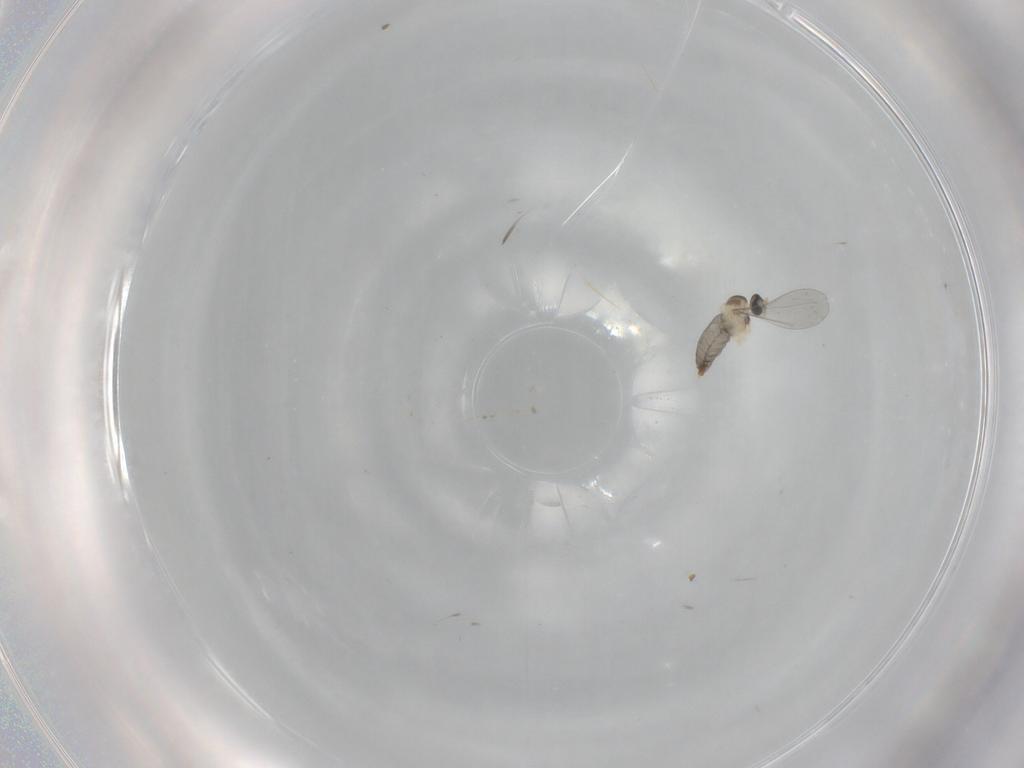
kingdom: Animalia
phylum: Arthropoda
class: Insecta
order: Diptera
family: Cecidomyiidae
